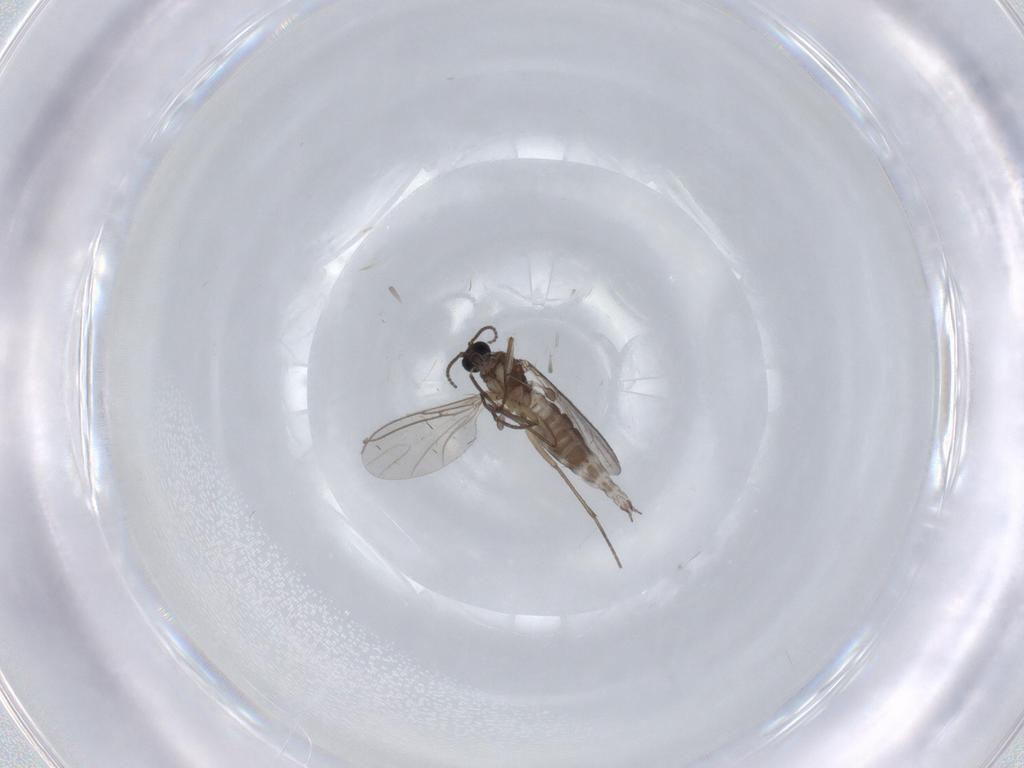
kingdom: Animalia
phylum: Arthropoda
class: Insecta
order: Diptera
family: Sciaridae
